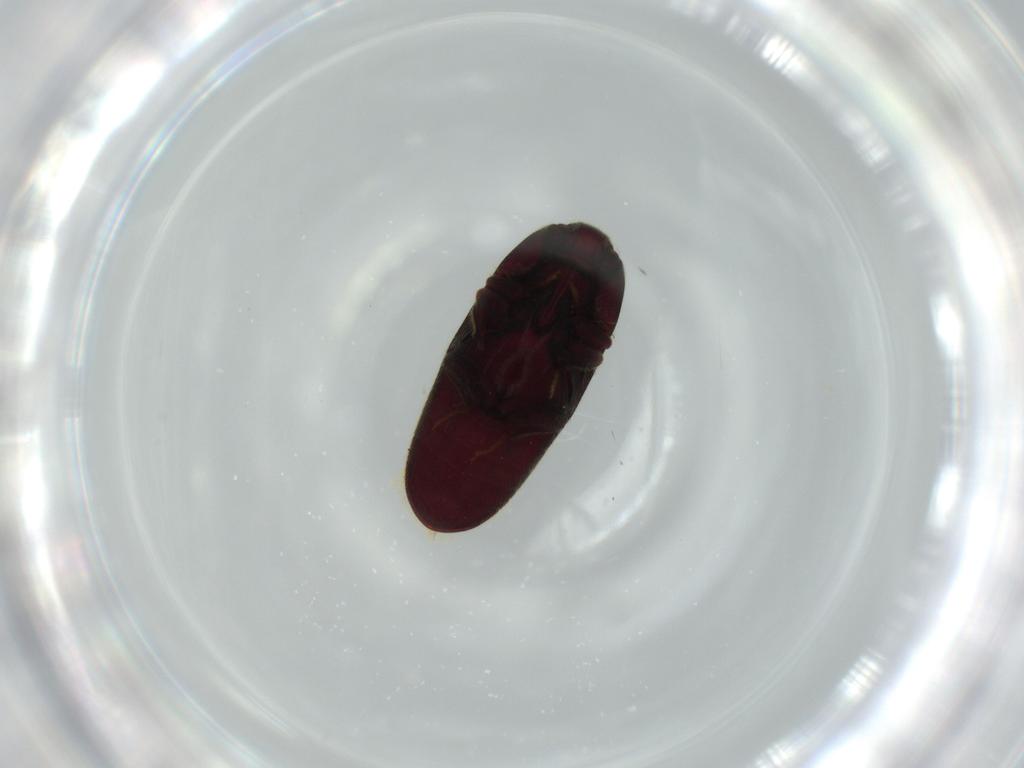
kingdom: Animalia
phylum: Arthropoda
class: Insecta
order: Coleoptera
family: Throscidae
